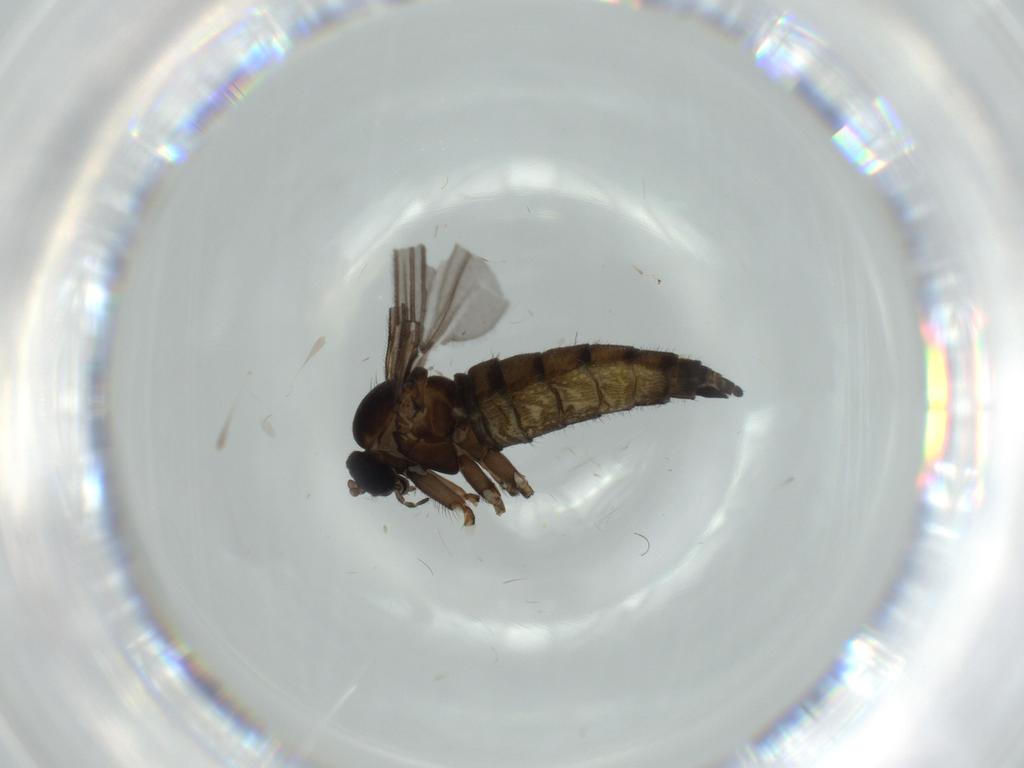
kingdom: Animalia
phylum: Arthropoda
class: Insecta
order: Diptera
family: Sciaridae
